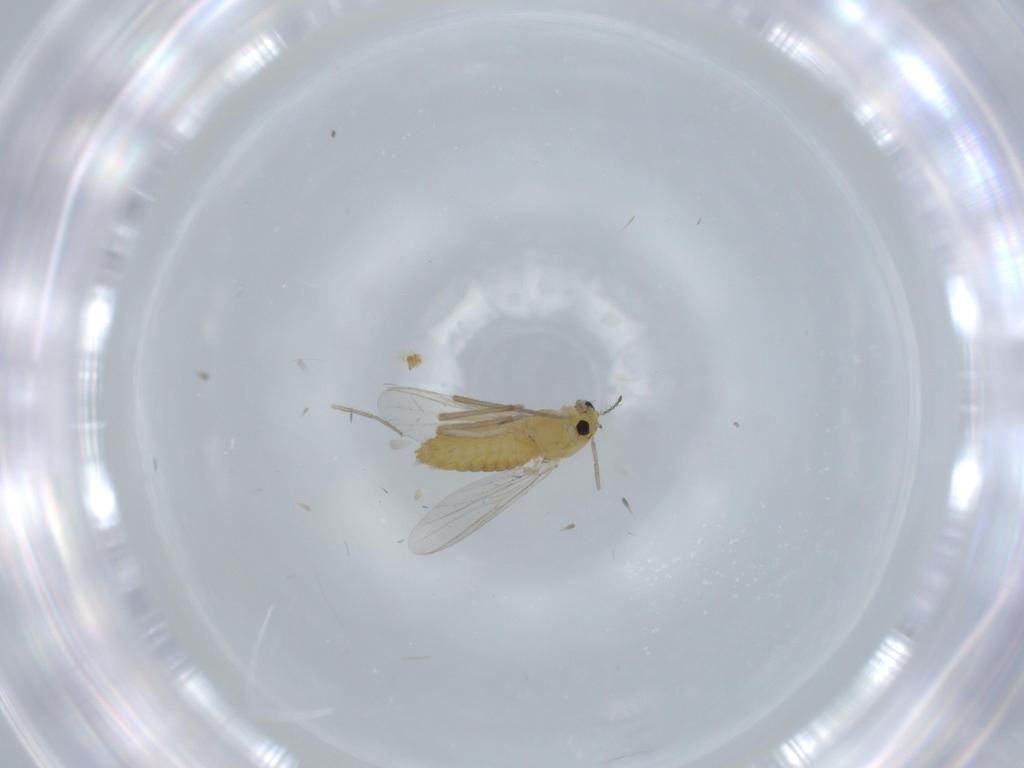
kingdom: Animalia
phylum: Arthropoda
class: Insecta
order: Diptera
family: Chironomidae
